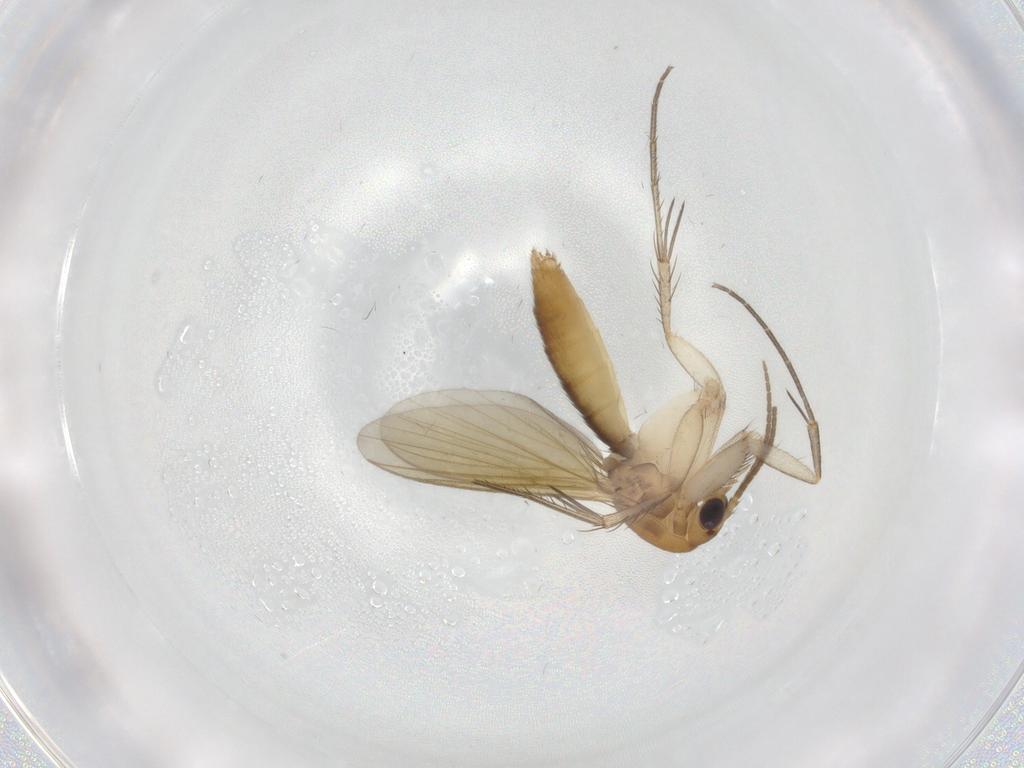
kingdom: Animalia
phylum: Arthropoda
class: Insecta
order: Diptera
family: Mycetophilidae
